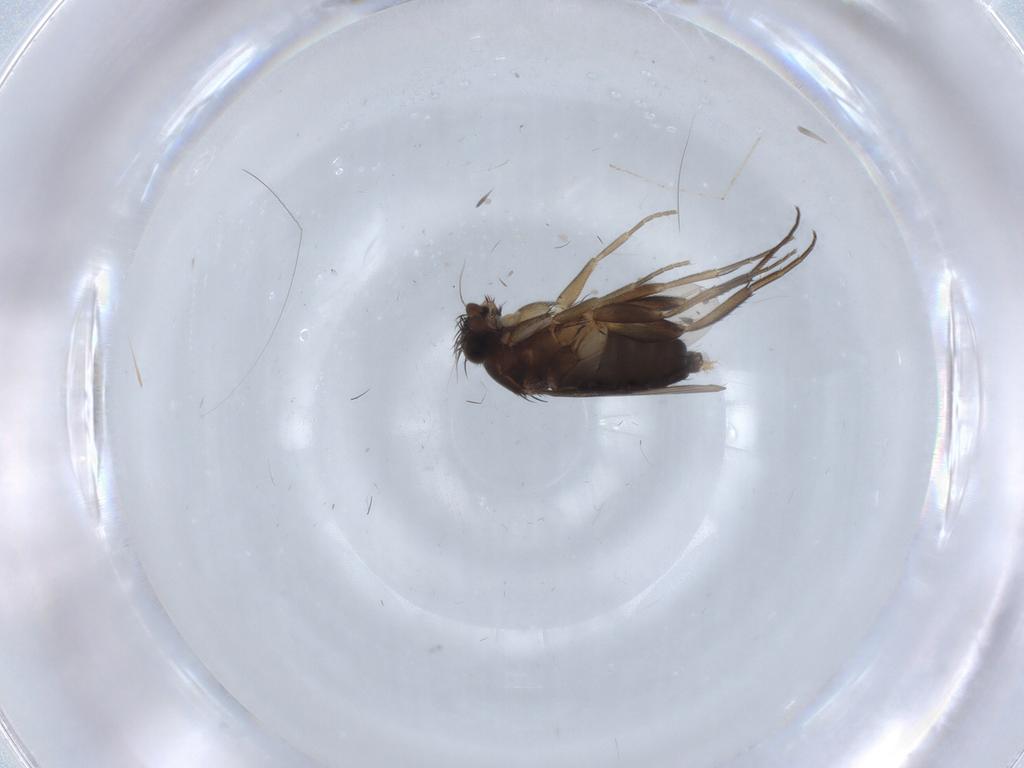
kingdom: Animalia
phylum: Arthropoda
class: Insecta
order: Diptera
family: Phoridae
